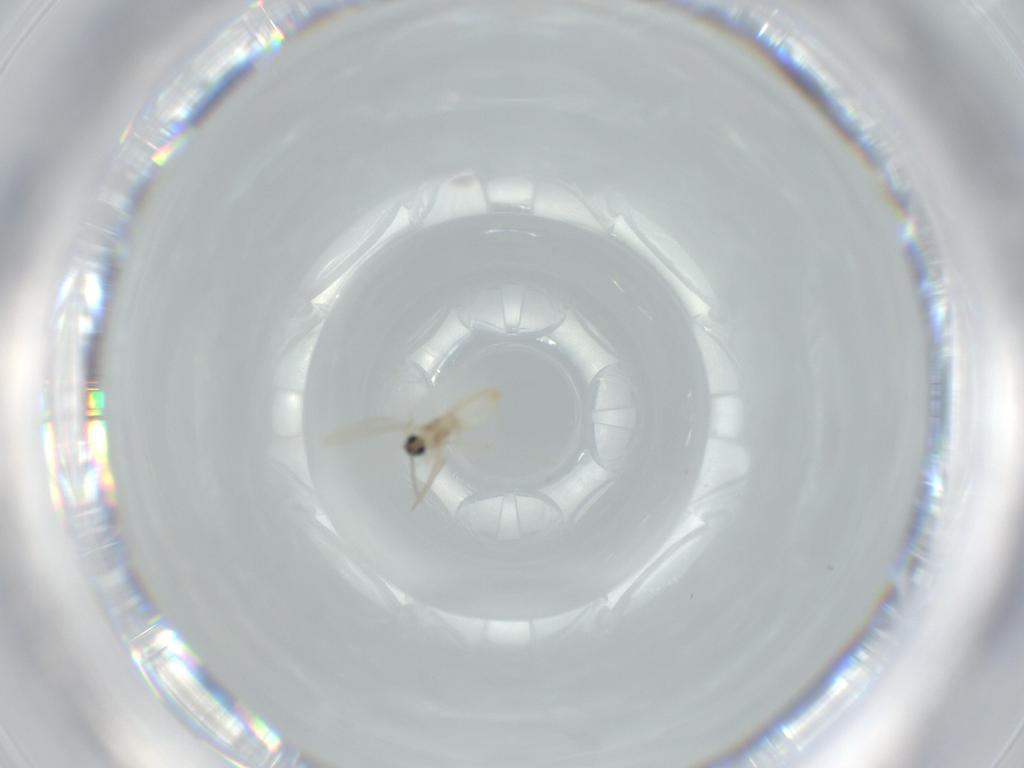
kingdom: Animalia
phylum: Arthropoda
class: Insecta
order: Diptera
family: Cecidomyiidae
